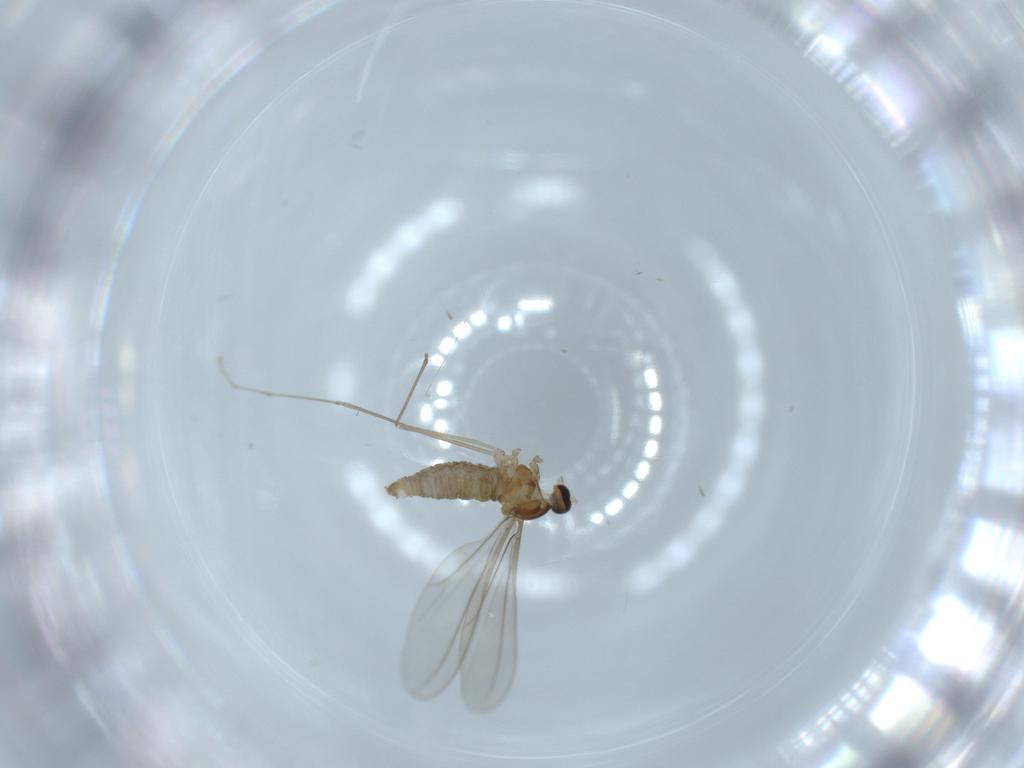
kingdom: Animalia
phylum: Arthropoda
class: Insecta
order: Diptera
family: Cecidomyiidae
